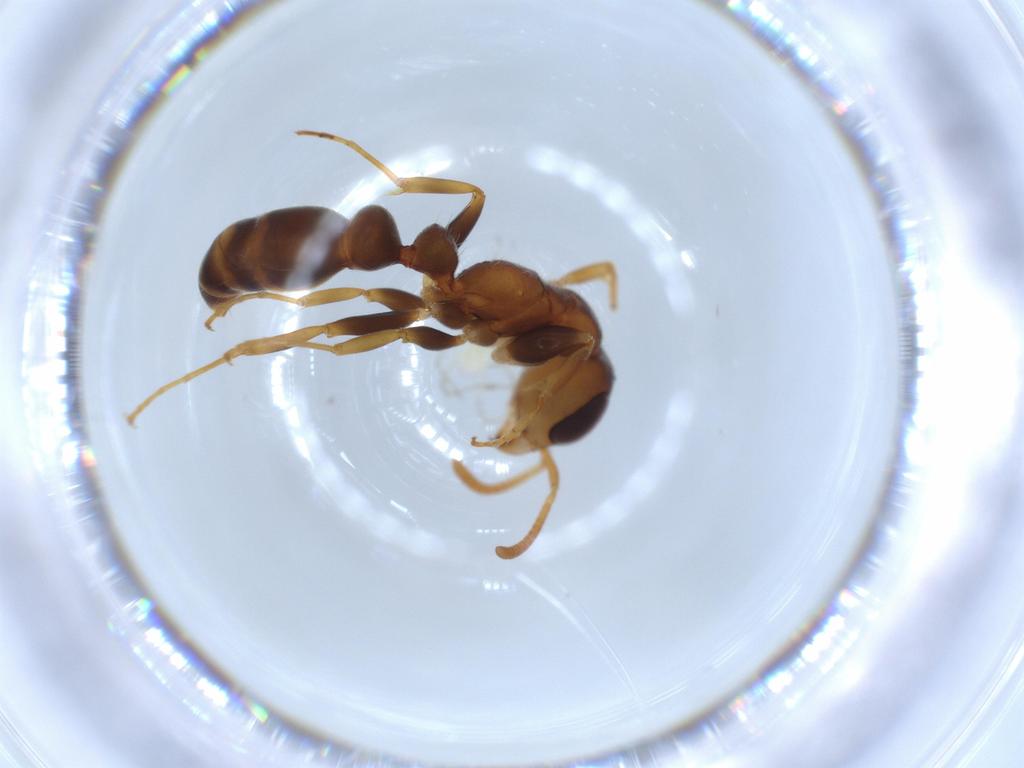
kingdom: Animalia
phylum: Arthropoda
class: Insecta
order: Hymenoptera
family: Formicidae
